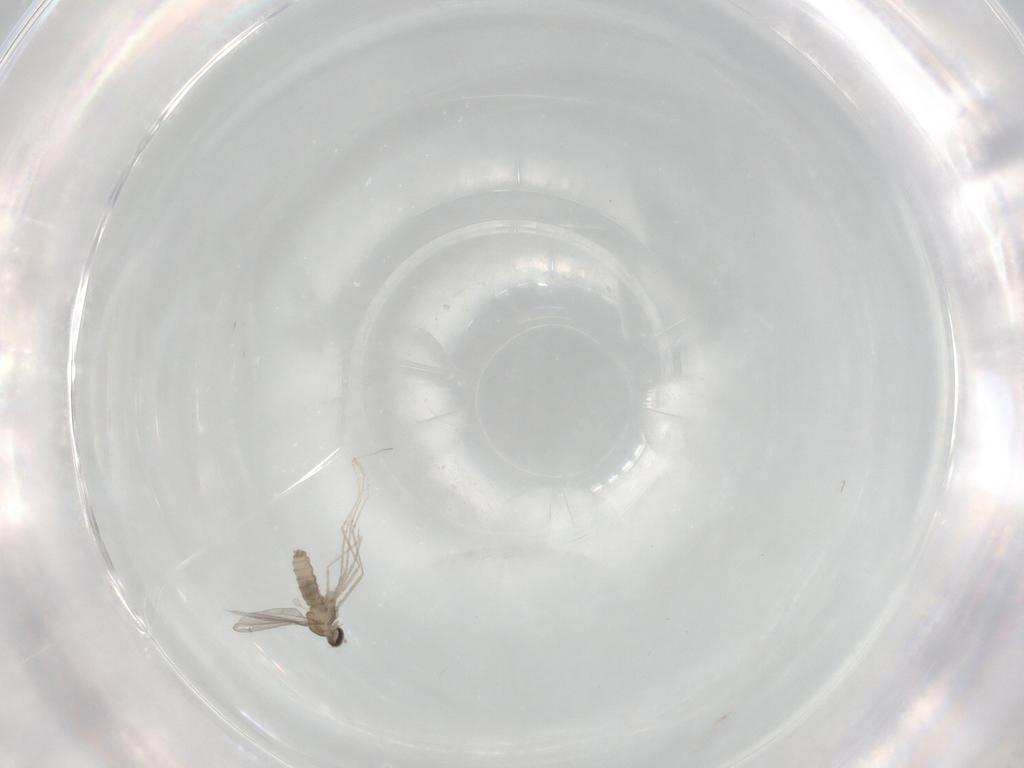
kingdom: Animalia
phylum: Arthropoda
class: Insecta
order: Diptera
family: Cecidomyiidae
